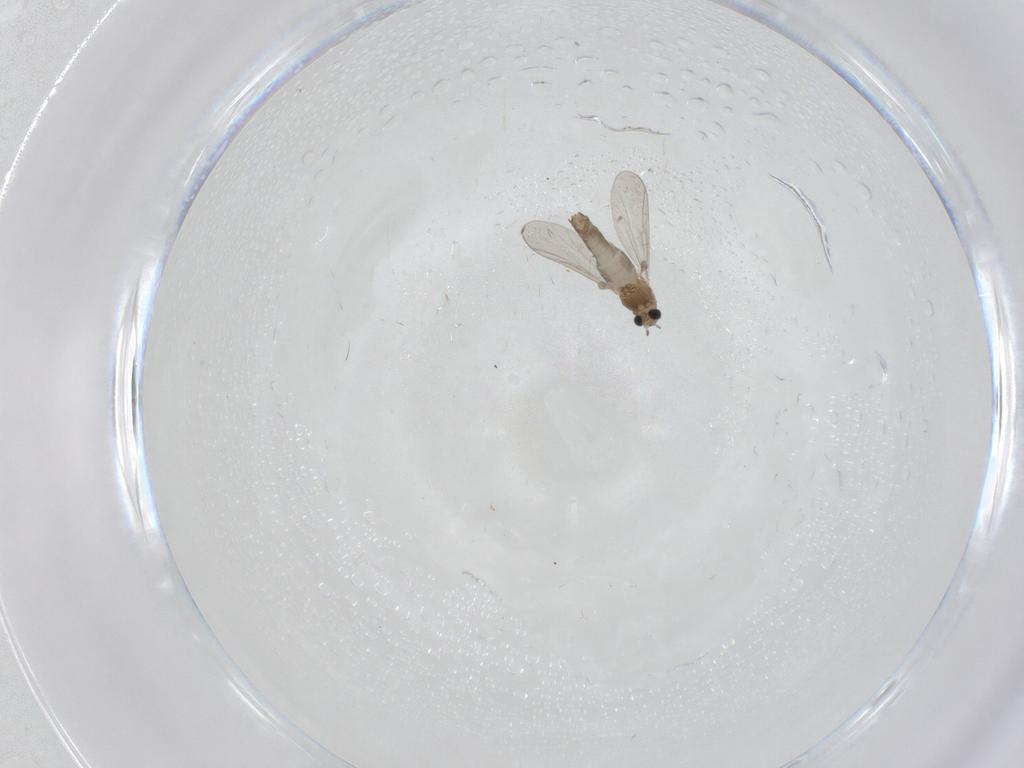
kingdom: Animalia
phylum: Arthropoda
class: Insecta
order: Diptera
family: Chironomidae
